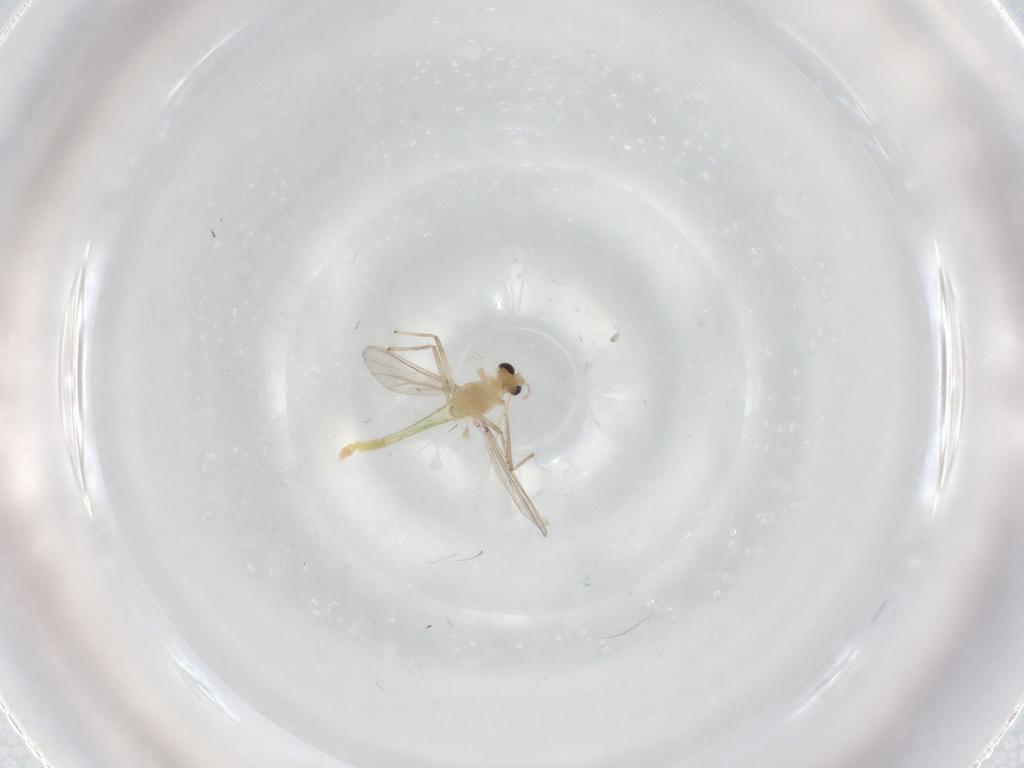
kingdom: Animalia
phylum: Arthropoda
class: Insecta
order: Diptera
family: Chironomidae
